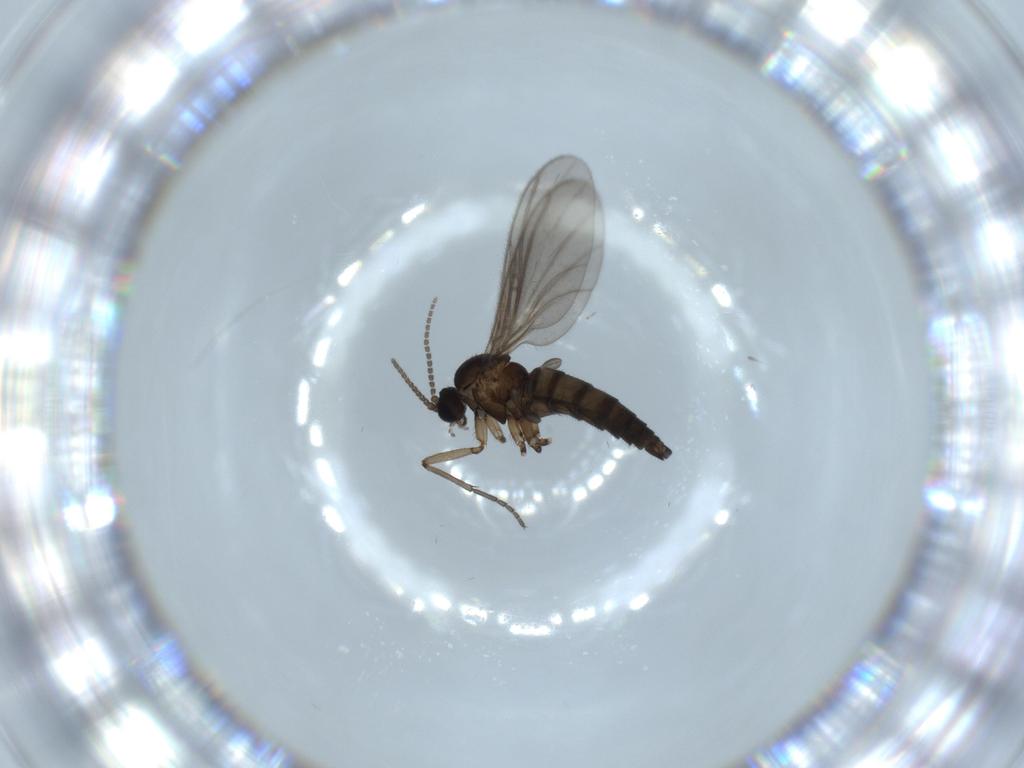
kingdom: Animalia
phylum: Arthropoda
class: Insecta
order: Diptera
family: Sciaridae
